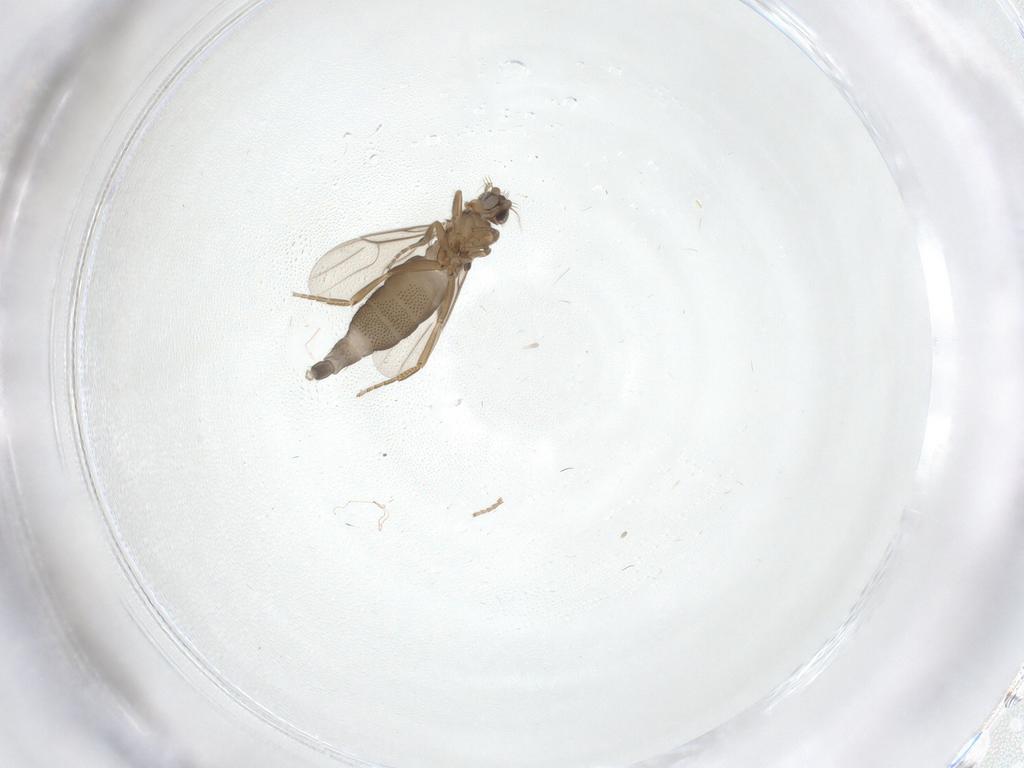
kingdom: Animalia
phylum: Arthropoda
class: Insecta
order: Diptera
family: Phoridae
